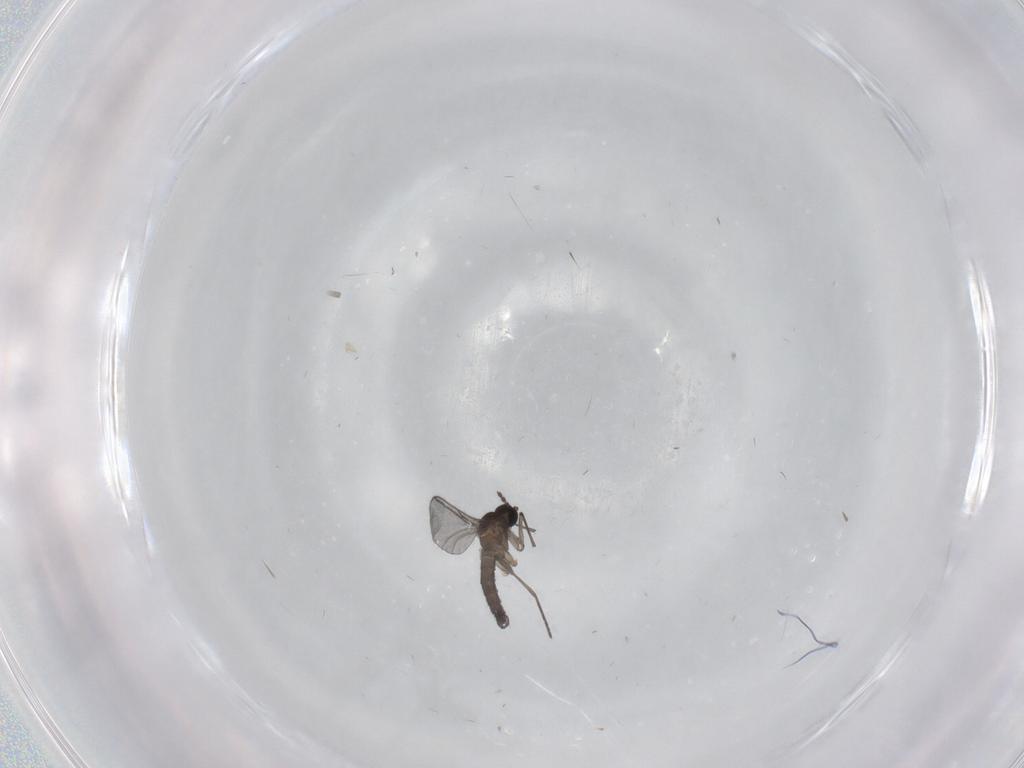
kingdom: Animalia
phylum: Arthropoda
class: Insecta
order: Diptera
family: Sciaridae
